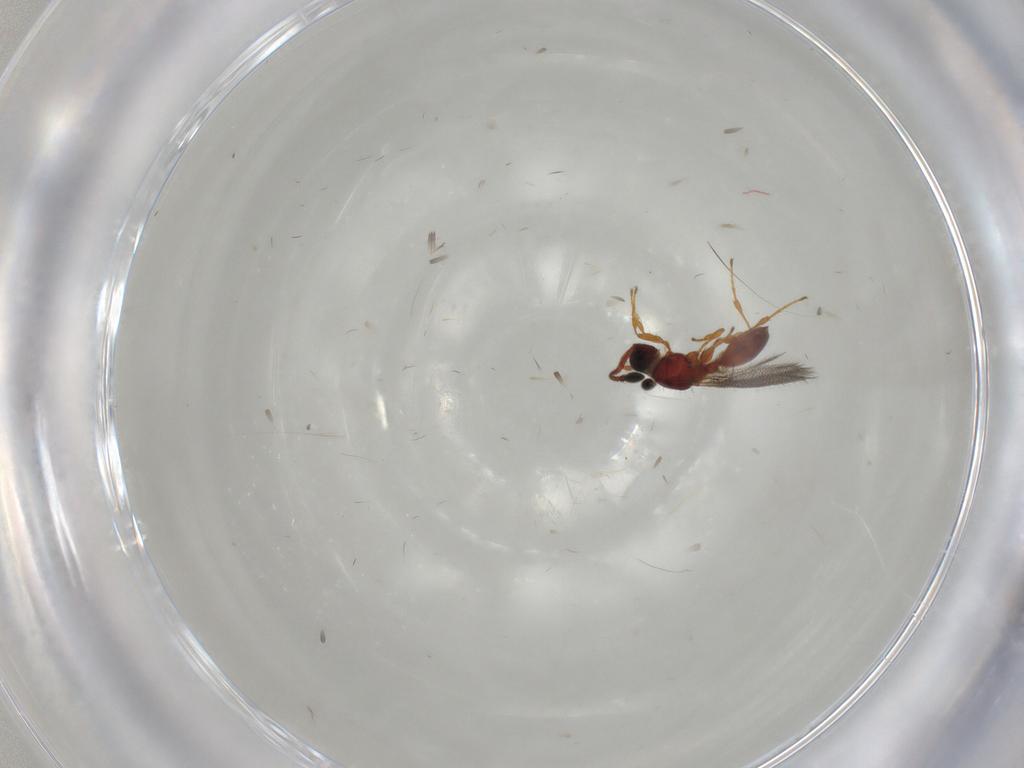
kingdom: Animalia
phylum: Arthropoda
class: Insecta
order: Hymenoptera
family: Diapriidae
